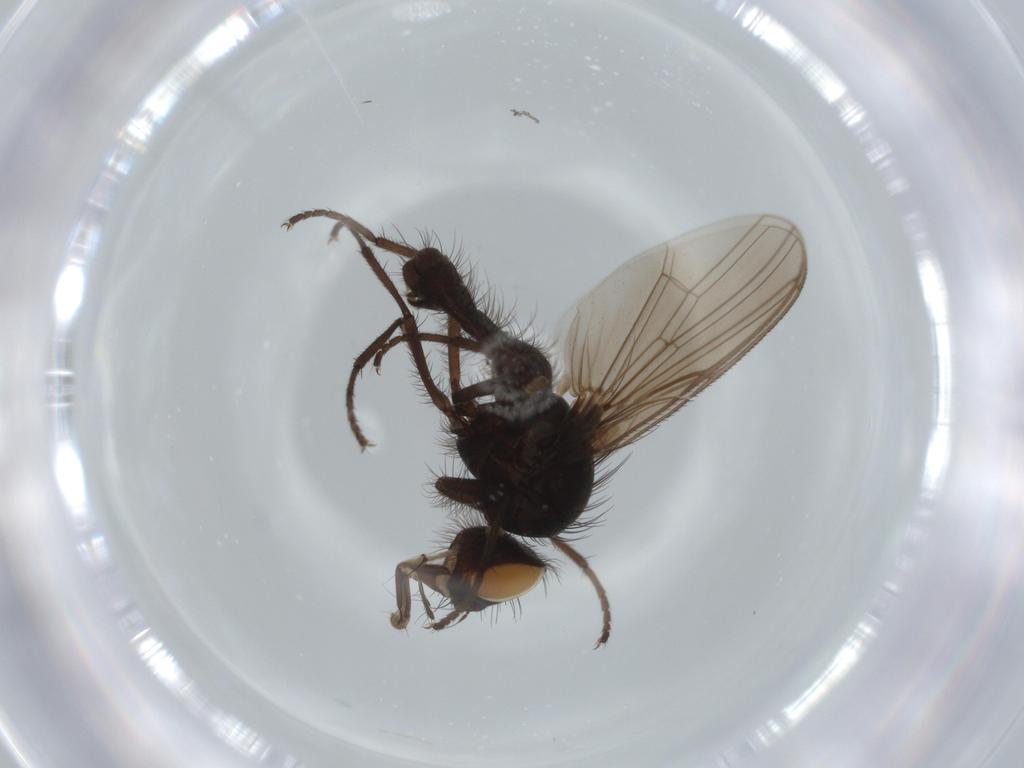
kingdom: Animalia
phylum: Arthropoda
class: Insecta
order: Diptera
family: Anthomyiidae
